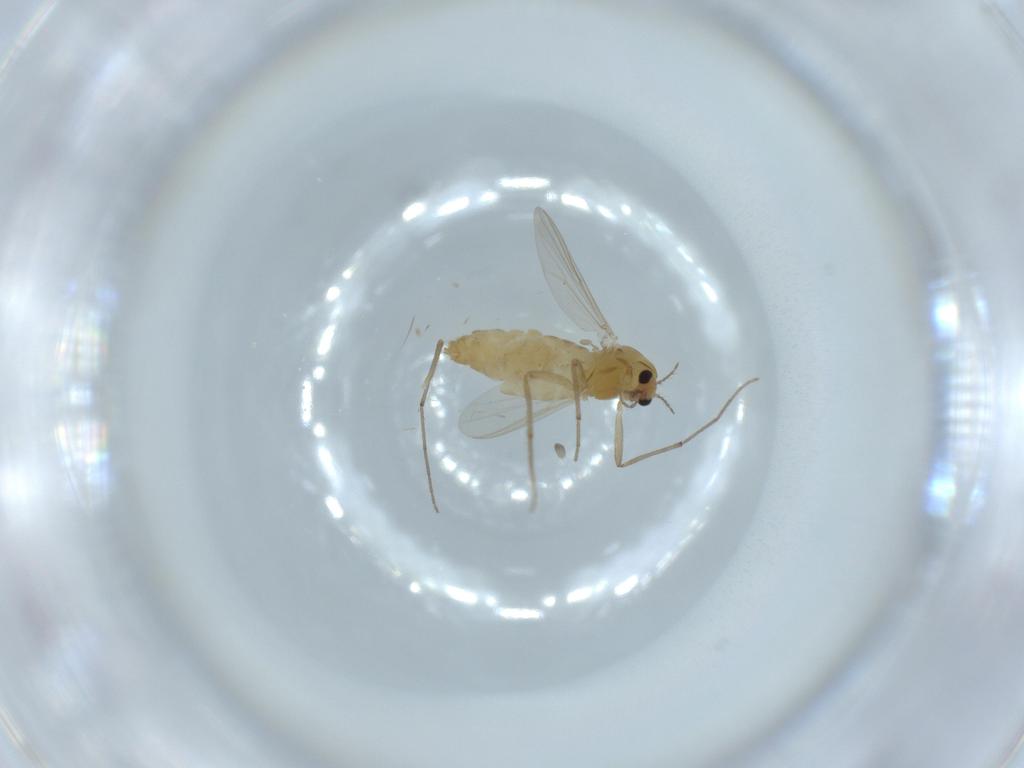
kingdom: Animalia
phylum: Arthropoda
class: Insecta
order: Diptera
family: Chironomidae
